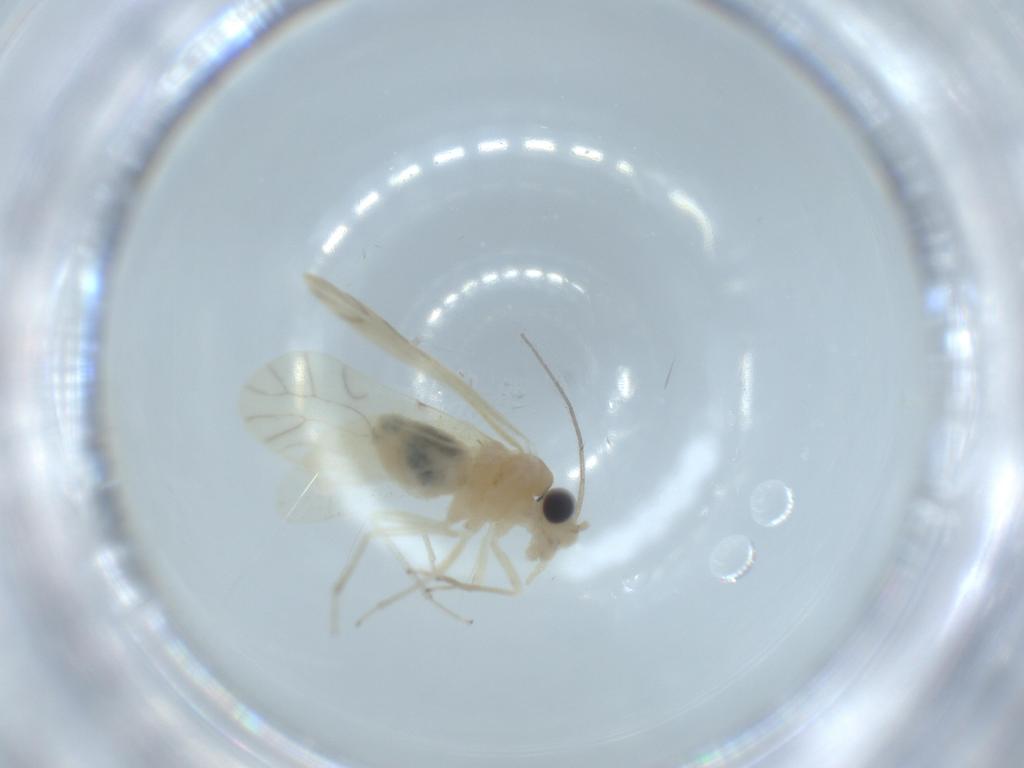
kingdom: Animalia
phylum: Arthropoda
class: Insecta
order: Psocodea
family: Caeciliusidae
